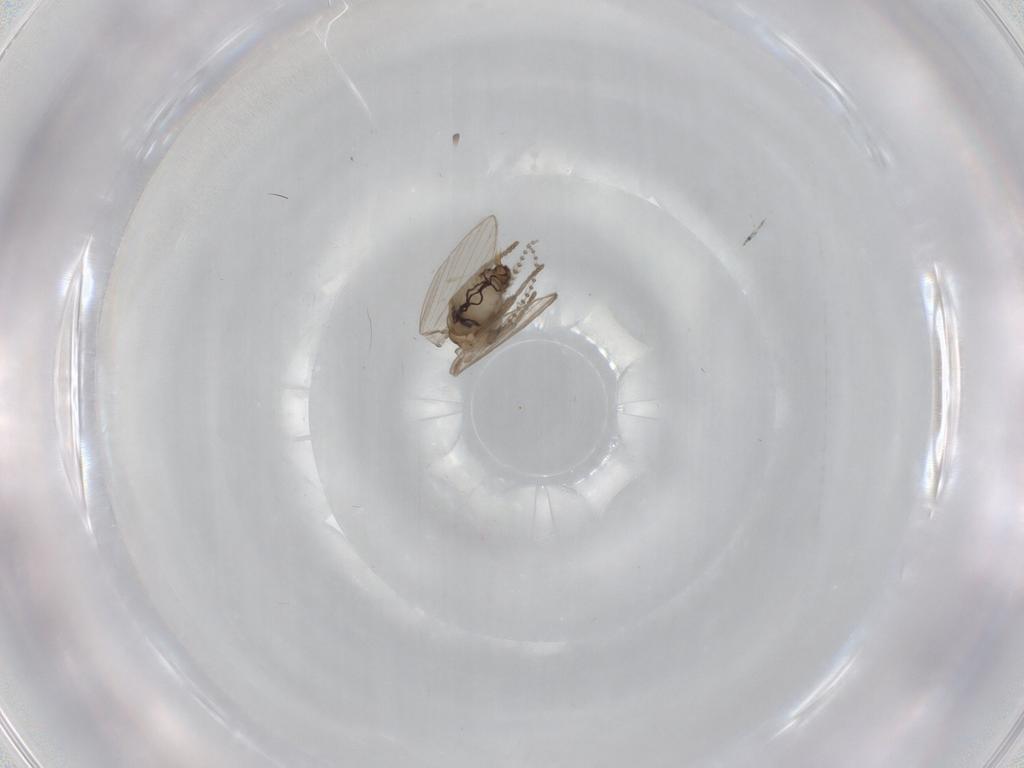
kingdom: Animalia
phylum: Arthropoda
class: Insecta
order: Diptera
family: Psychodidae
